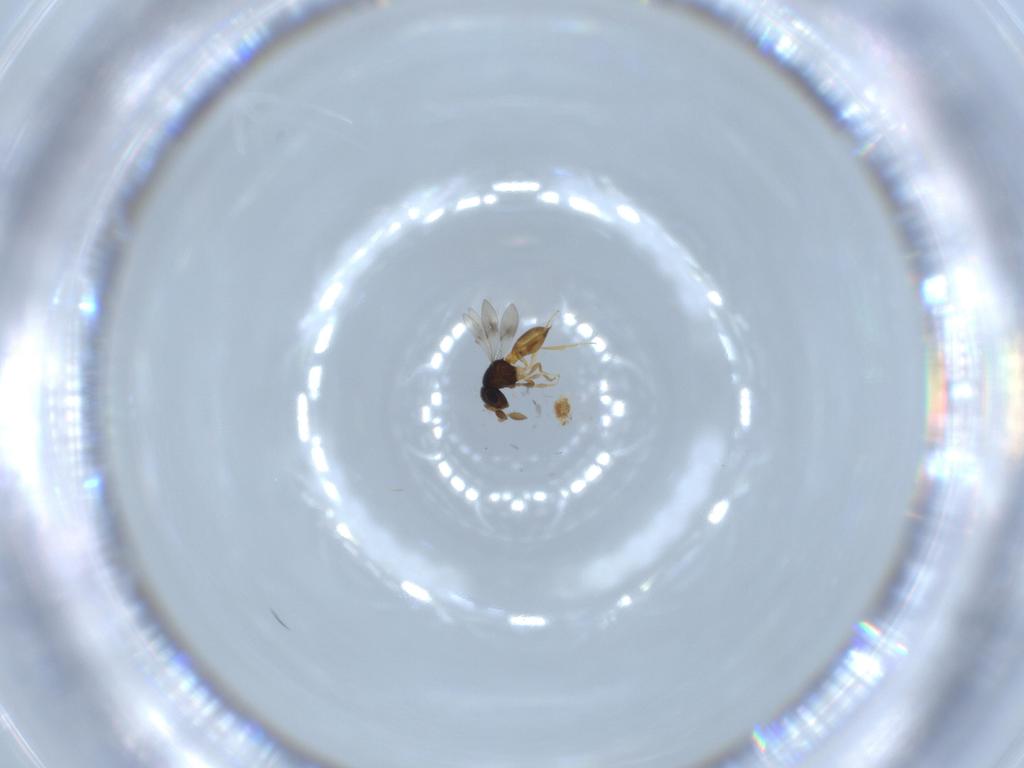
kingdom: Animalia
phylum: Arthropoda
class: Insecta
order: Hymenoptera
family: Scelionidae
